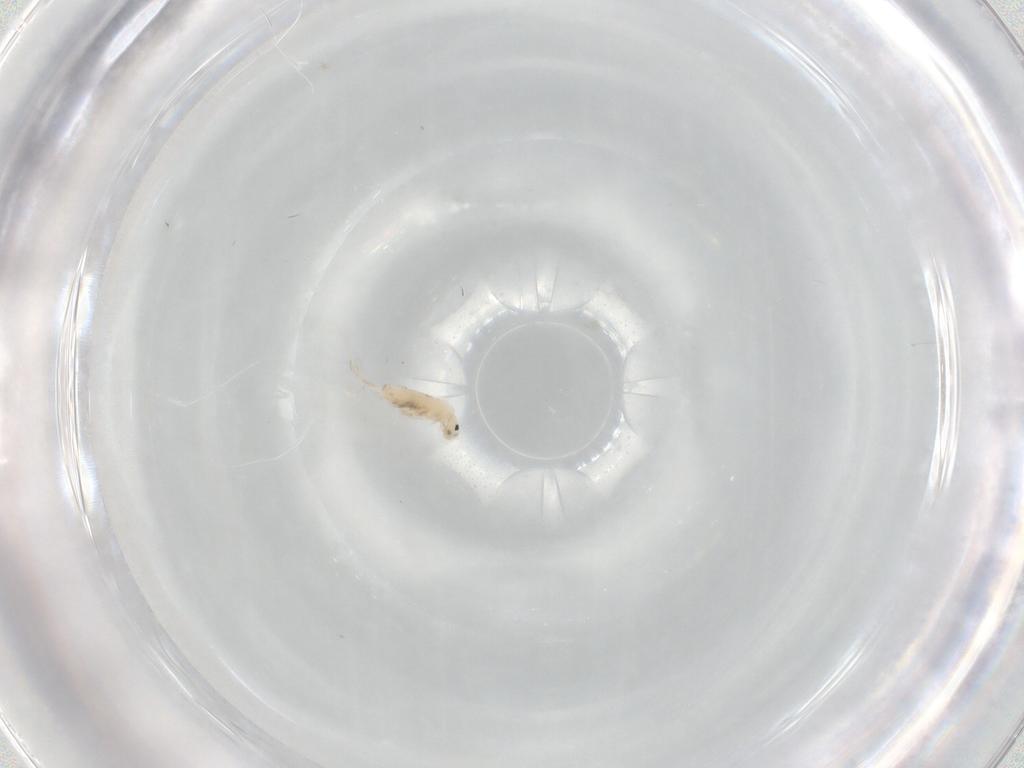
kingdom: Animalia
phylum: Arthropoda
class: Collembola
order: Entomobryomorpha
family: Entomobryidae
